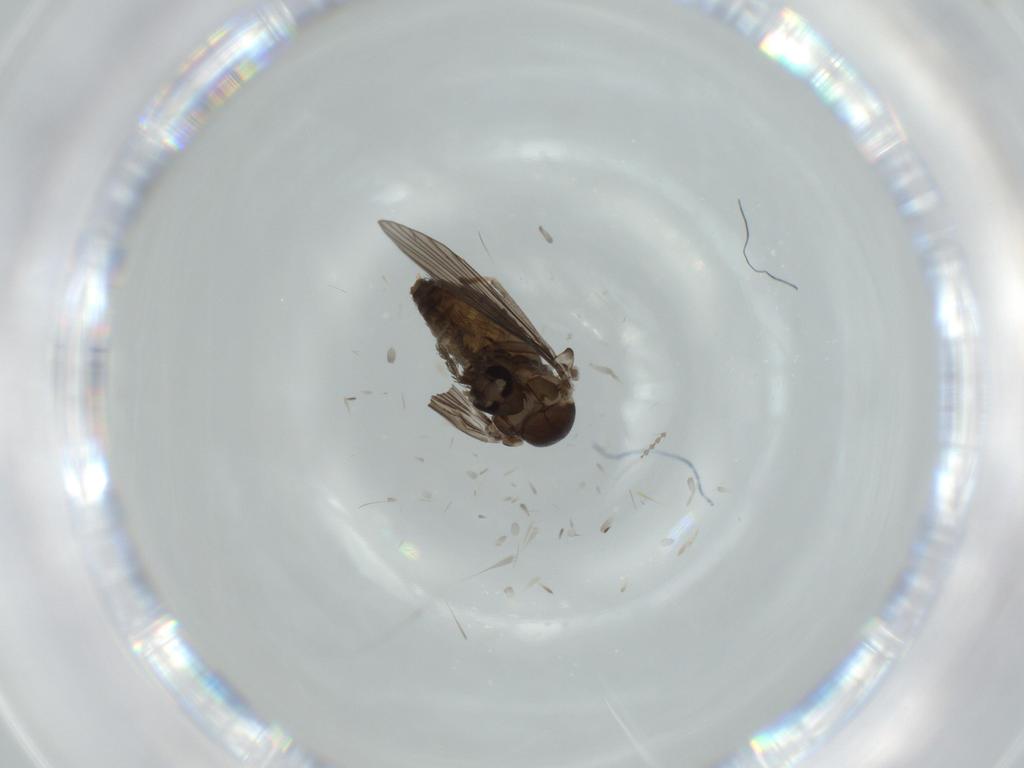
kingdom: Animalia
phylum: Arthropoda
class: Insecta
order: Diptera
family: Psychodidae
